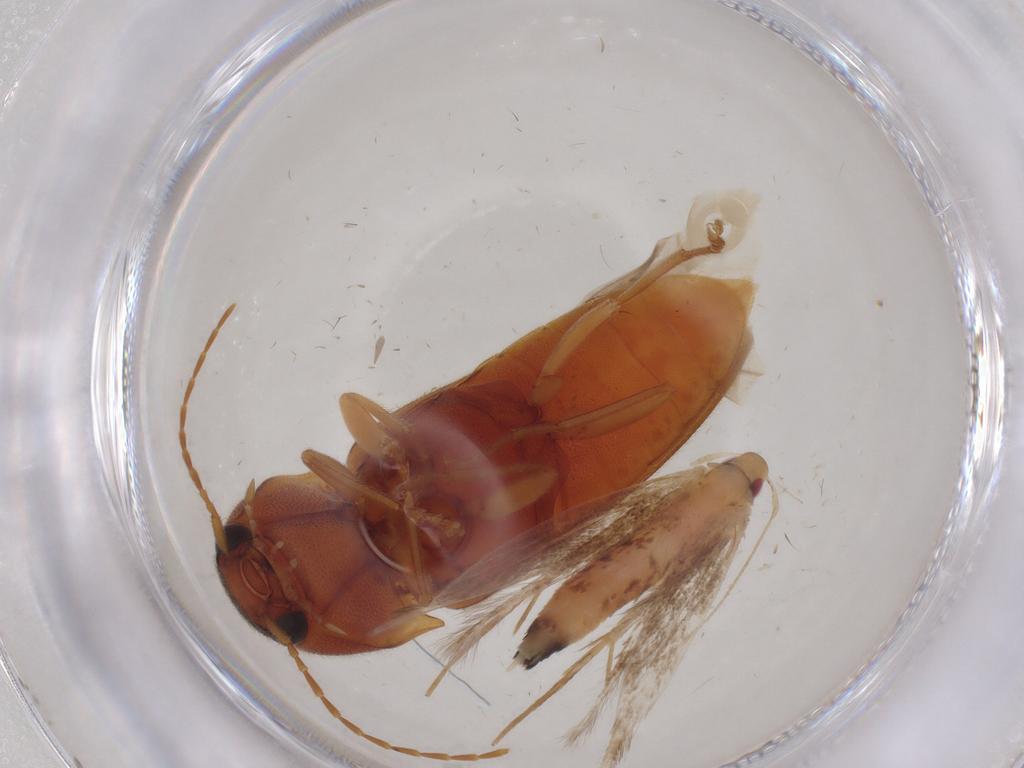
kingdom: Animalia
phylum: Arthropoda
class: Insecta
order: Lepidoptera
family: Gelechiidae
